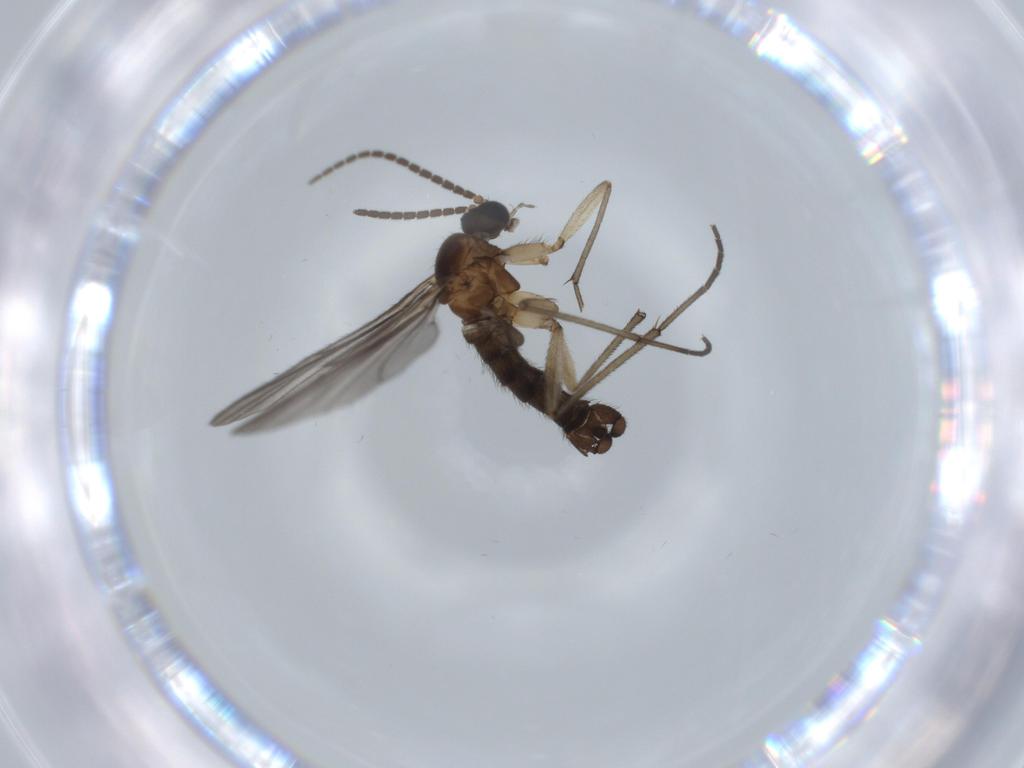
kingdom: Animalia
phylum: Arthropoda
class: Insecta
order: Diptera
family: Sciaridae
